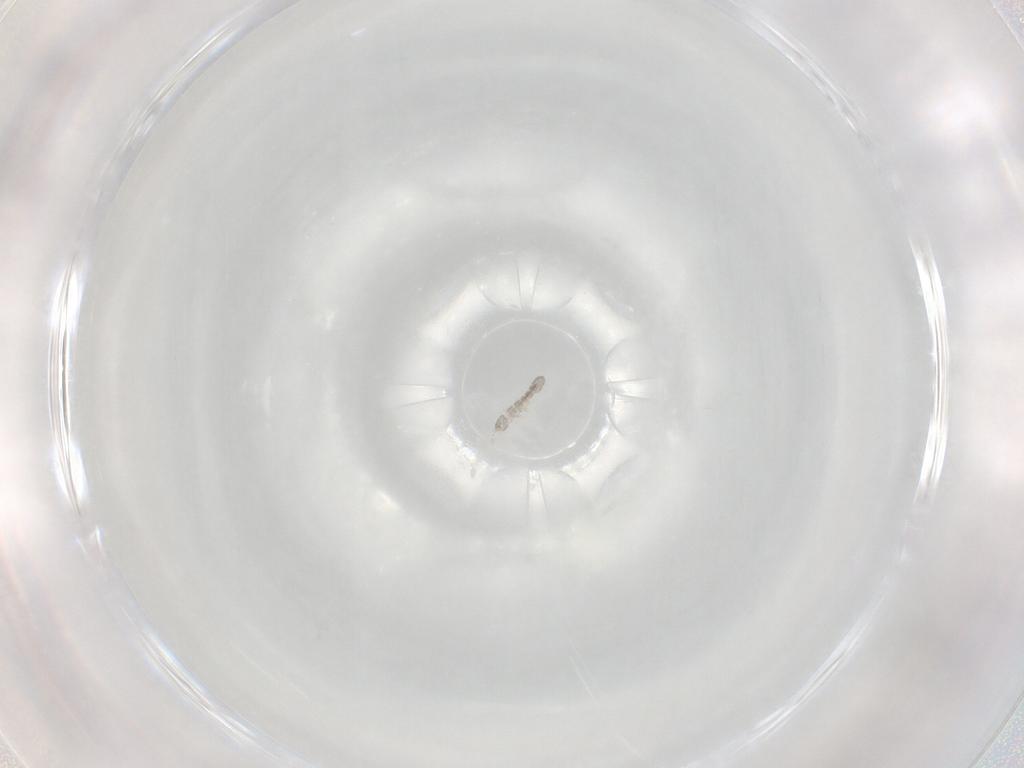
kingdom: Animalia
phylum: Arthropoda
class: Collembola
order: Entomobryomorpha
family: Isotomidae
